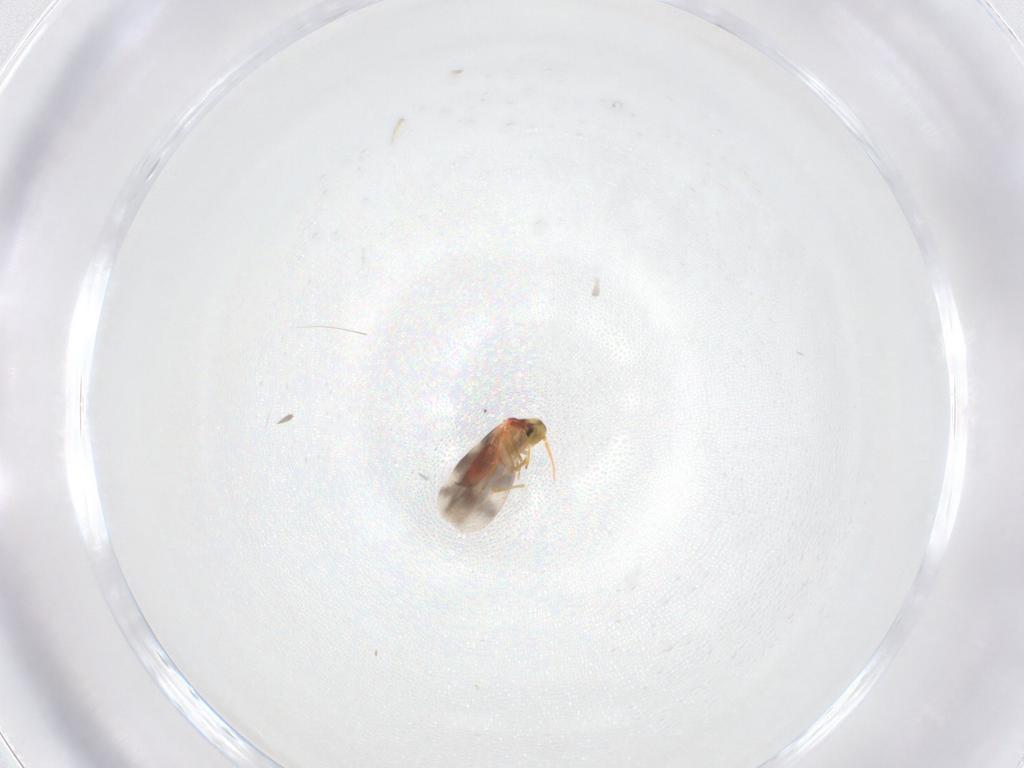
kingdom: Animalia
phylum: Arthropoda
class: Insecta
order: Hemiptera
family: Aleyrodidae
